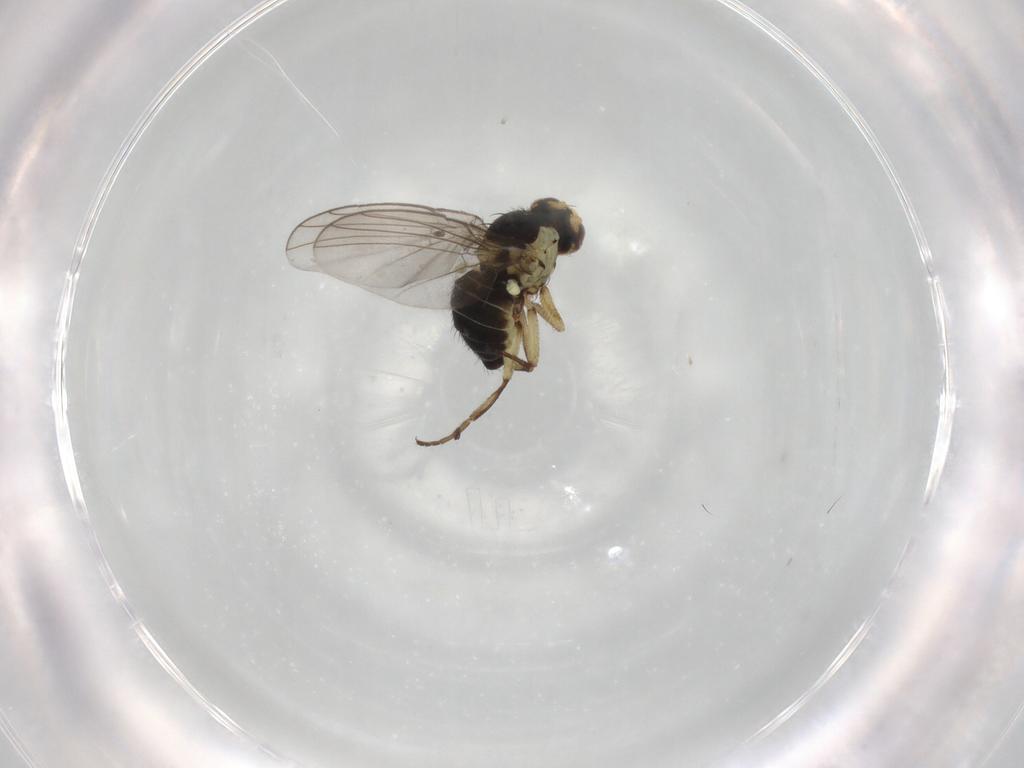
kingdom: Animalia
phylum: Arthropoda
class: Insecta
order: Diptera
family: Agromyzidae
